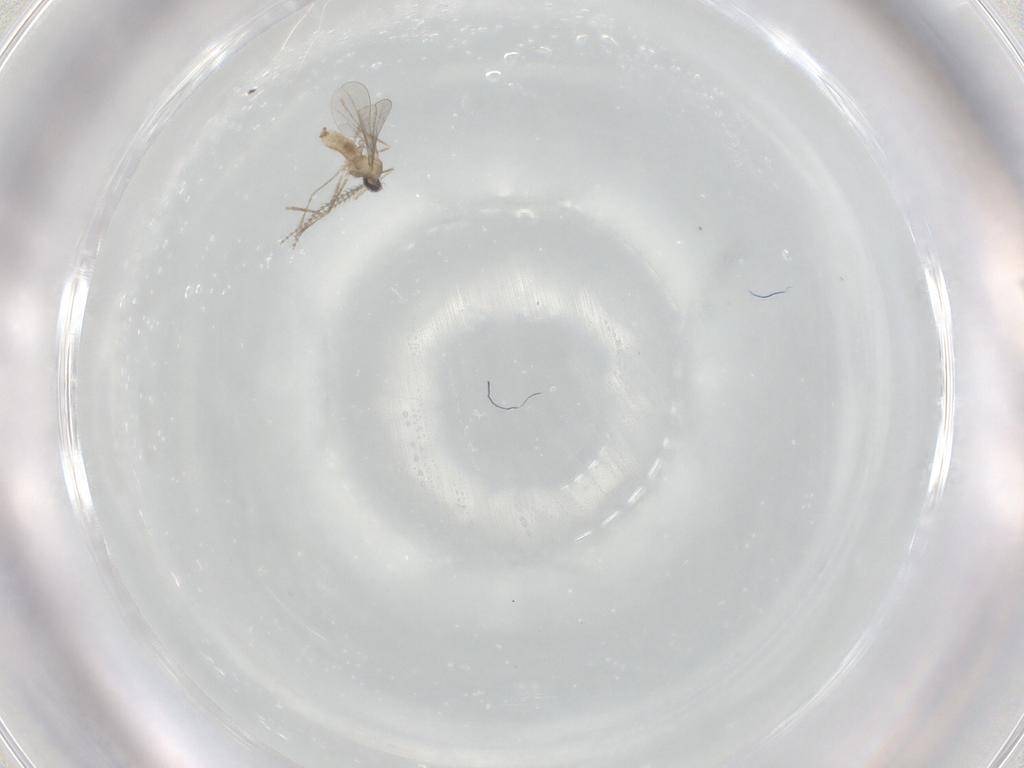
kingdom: Animalia
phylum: Arthropoda
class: Insecta
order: Diptera
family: Cecidomyiidae
